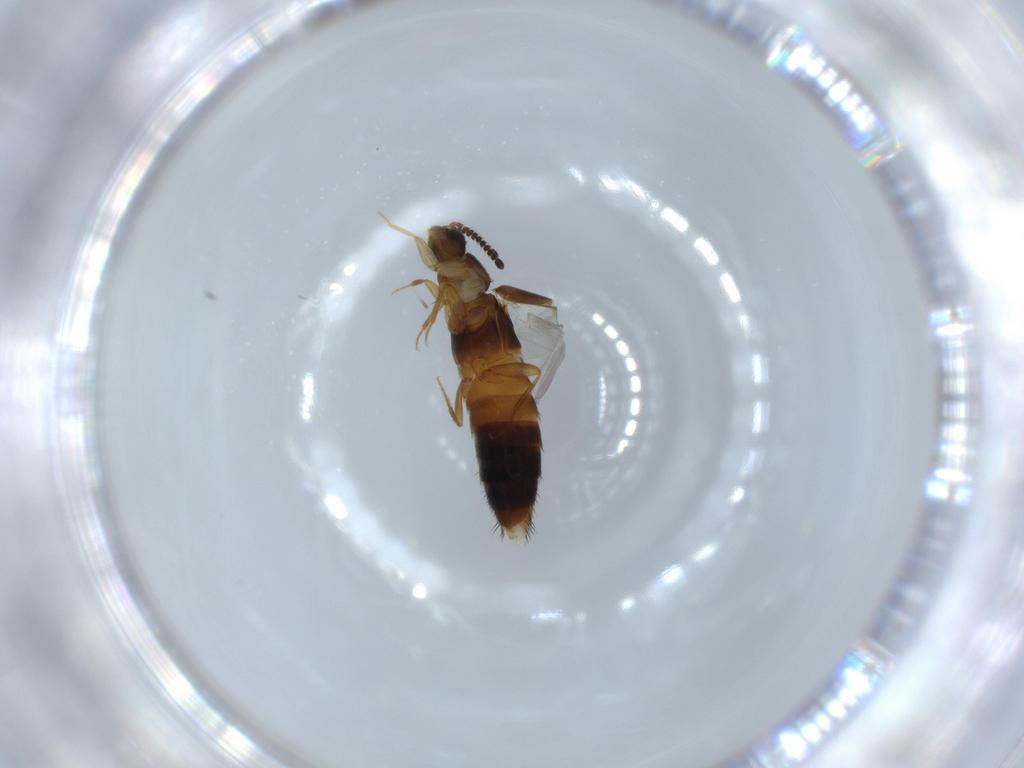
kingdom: Animalia
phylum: Arthropoda
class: Insecta
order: Coleoptera
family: Staphylinidae
